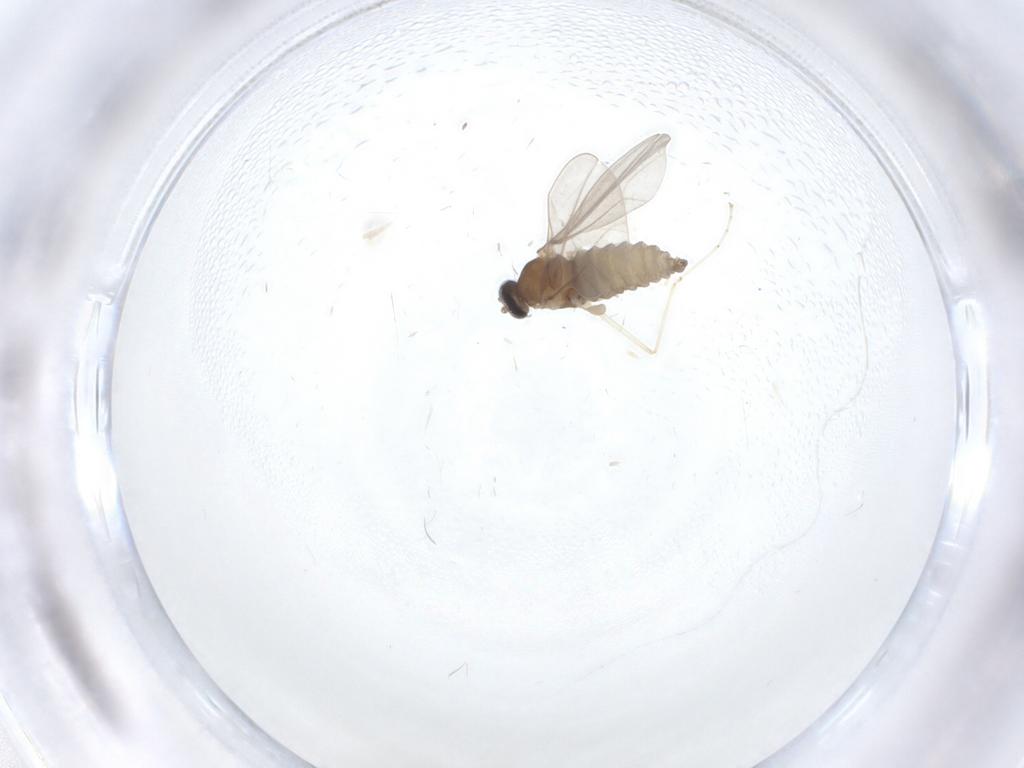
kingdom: Animalia
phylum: Arthropoda
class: Insecta
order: Diptera
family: Cecidomyiidae
